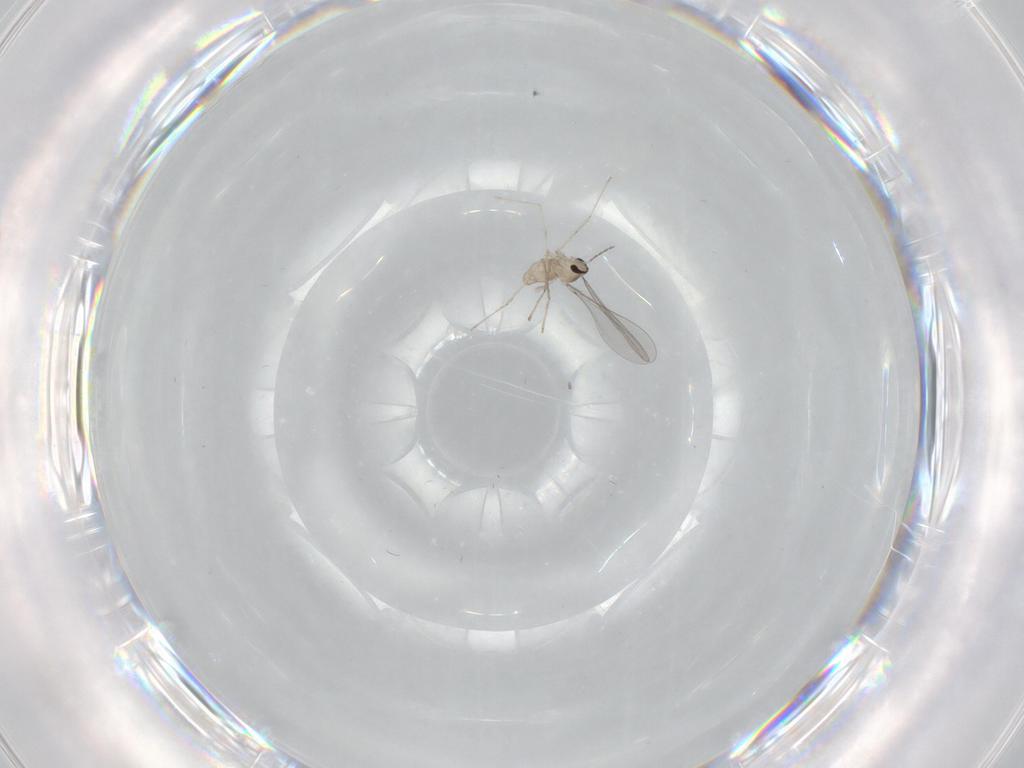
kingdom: Animalia
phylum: Arthropoda
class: Insecta
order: Diptera
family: Cecidomyiidae
